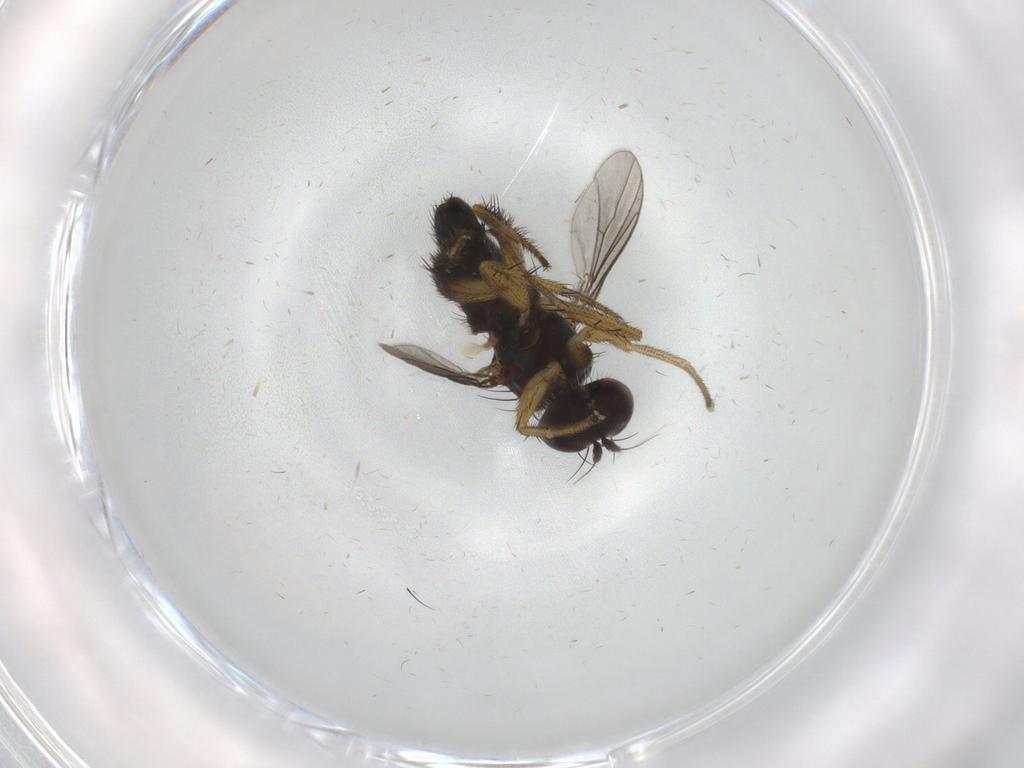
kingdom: Animalia
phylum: Arthropoda
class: Insecta
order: Diptera
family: Dolichopodidae
